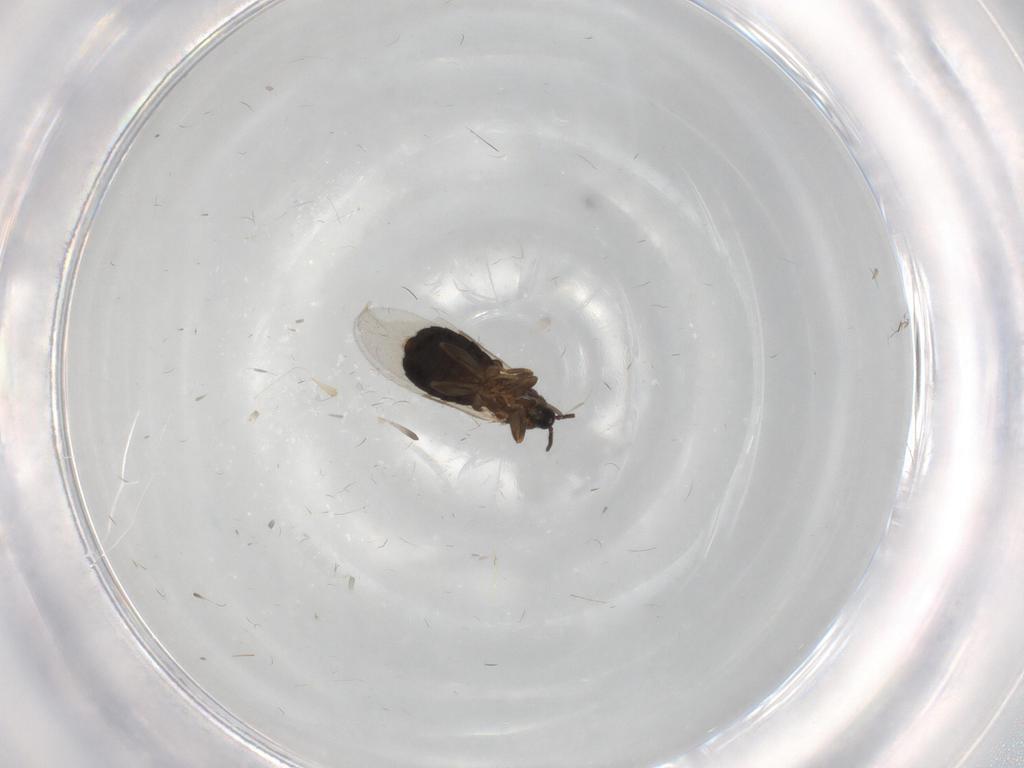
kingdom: Animalia
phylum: Arthropoda
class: Insecta
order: Diptera
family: Scatopsidae
